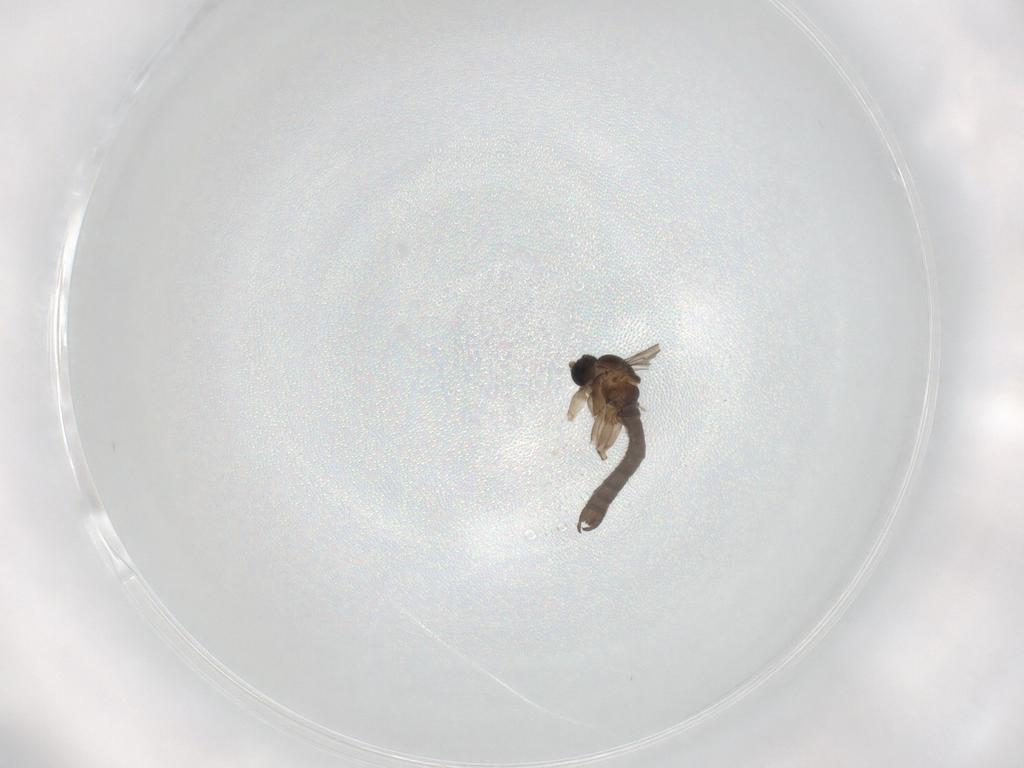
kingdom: Animalia
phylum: Arthropoda
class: Insecta
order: Diptera
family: Sciaridae
